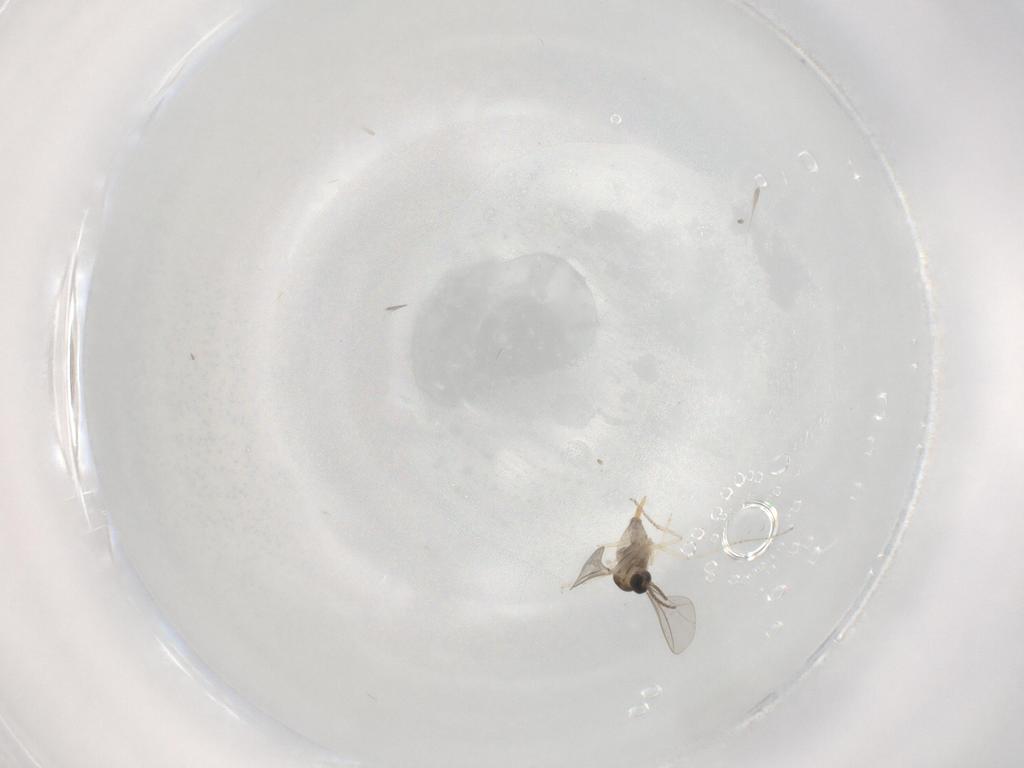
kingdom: Animalia
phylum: Arthropoda
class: Insecta
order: Diptera
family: Cecidomyiidae
